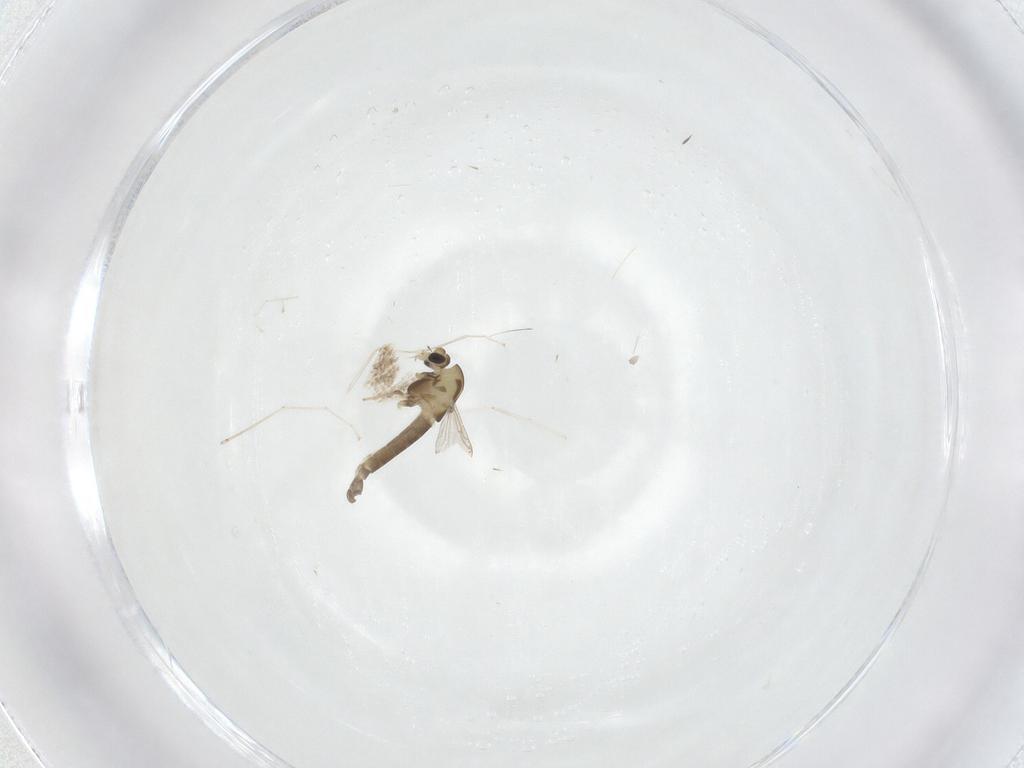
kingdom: Animalia
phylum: Arthropoda
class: Insecta
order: Diptera
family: Chironomidae
